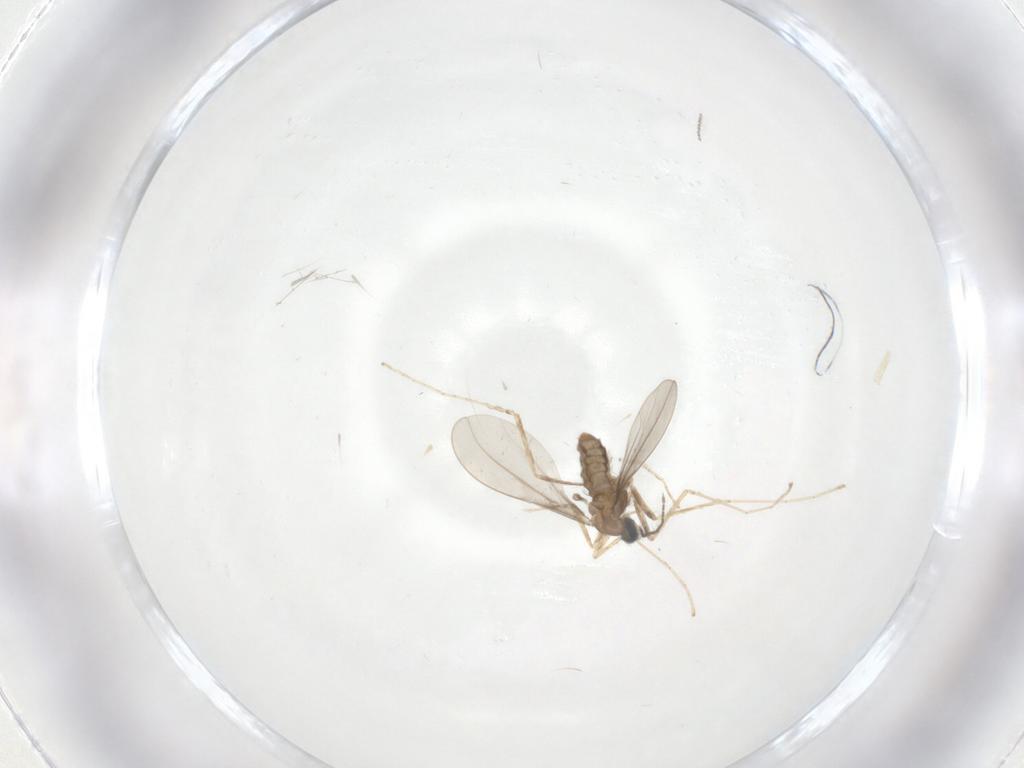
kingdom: Animalia
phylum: Arthropoda
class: Insecta
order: Diptera
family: Cecidomyiidae
